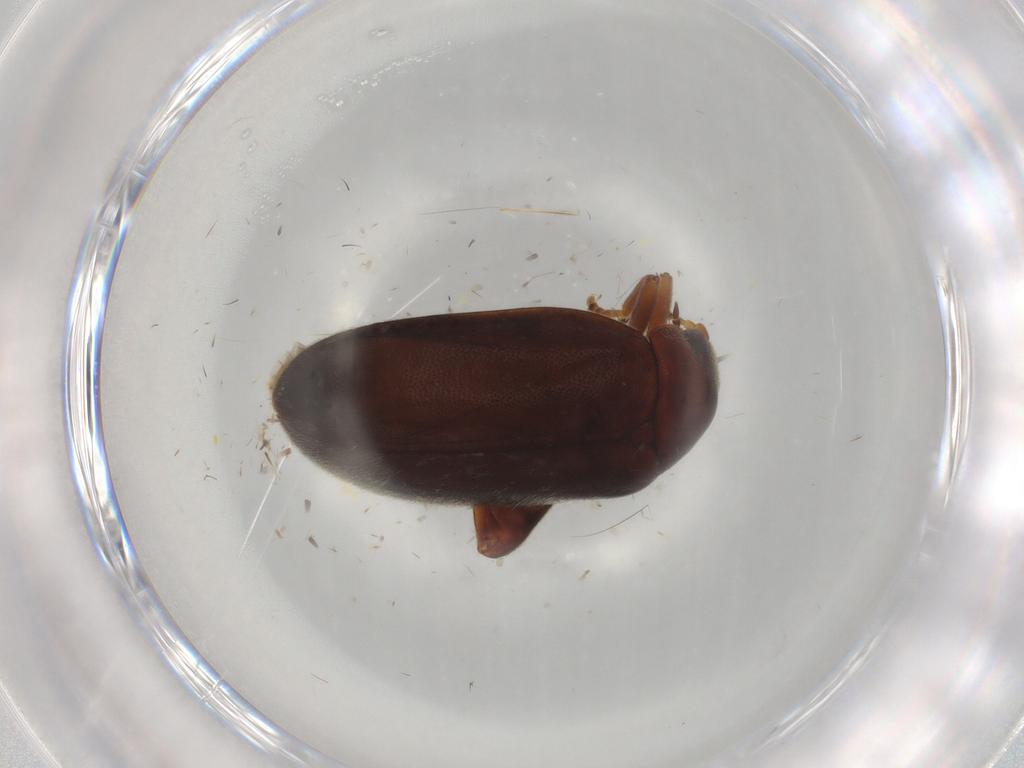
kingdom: Animalia
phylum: Arthropoda
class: Insecta
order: Coleoptera
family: Scirtidae
